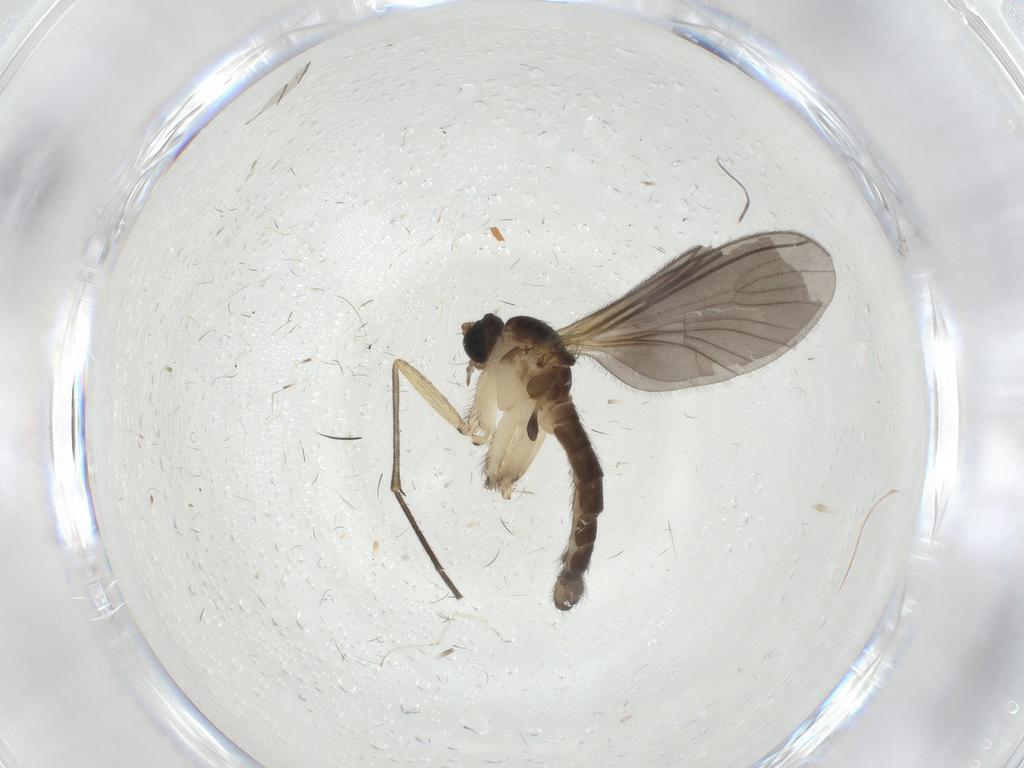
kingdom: Animalia
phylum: Arthropoda
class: Insecta
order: Diptera
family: Sciaridae
